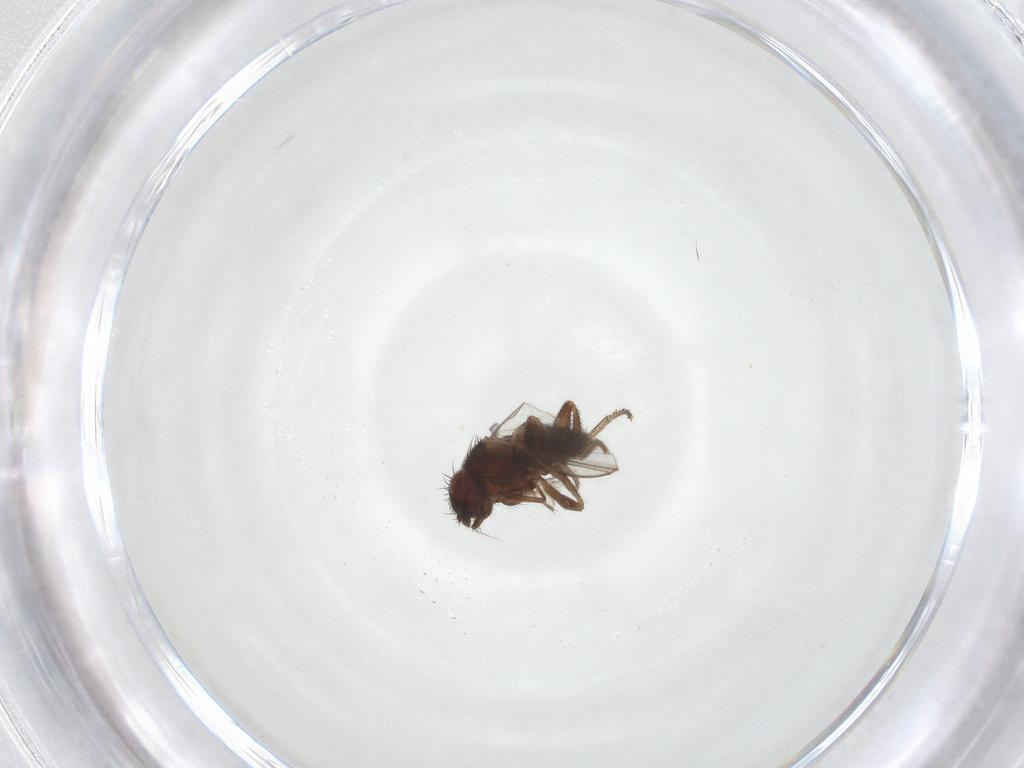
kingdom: Animalia
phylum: Arthropoda
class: Insecta
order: Diptera
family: Milichiidae
